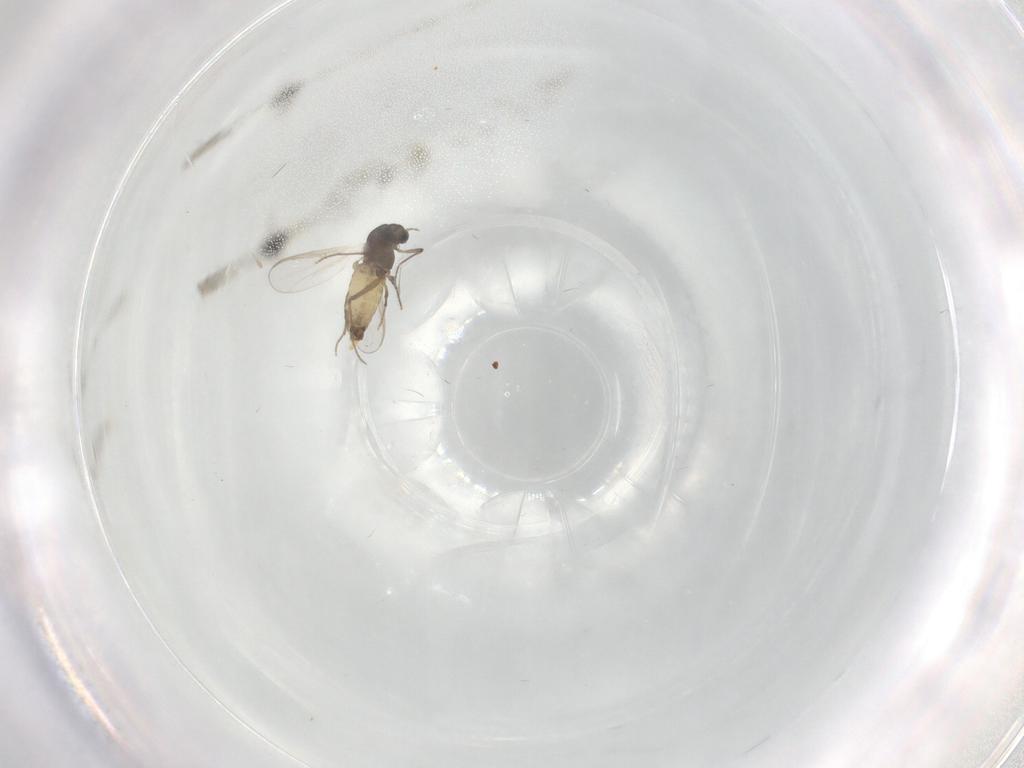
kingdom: Animalia
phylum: Arthropoda
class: Insecta
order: Diptera
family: Chironomidae
